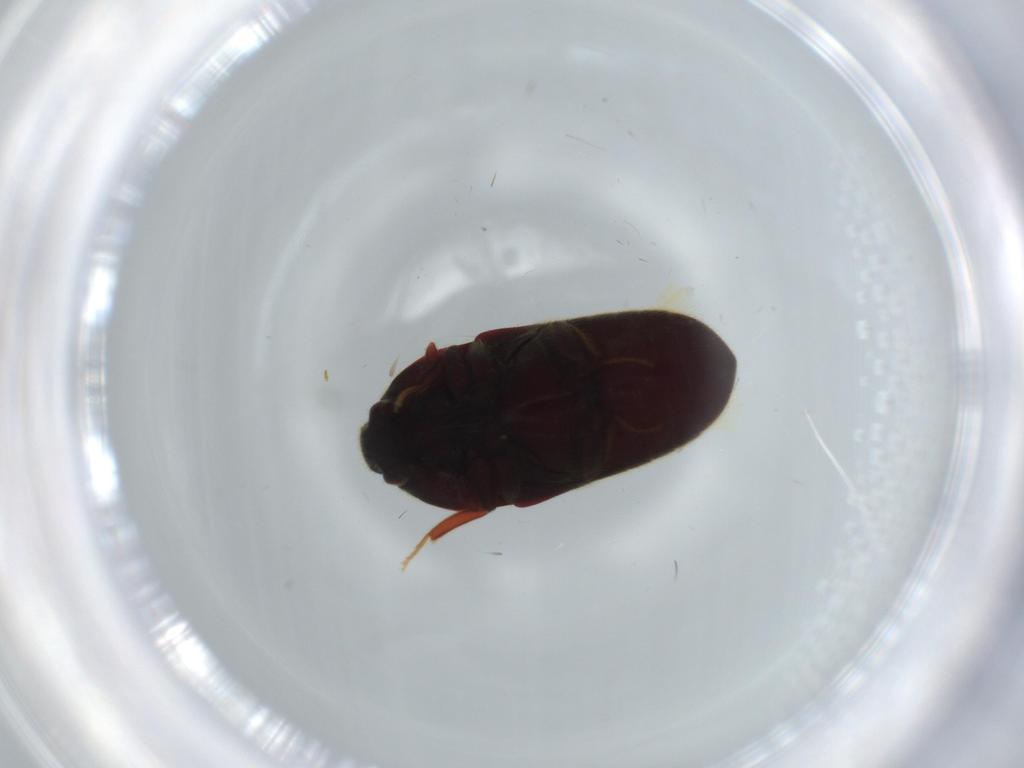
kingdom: Animalia
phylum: Arthropoda
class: Insecta
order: Coleoptera
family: Throscidae
